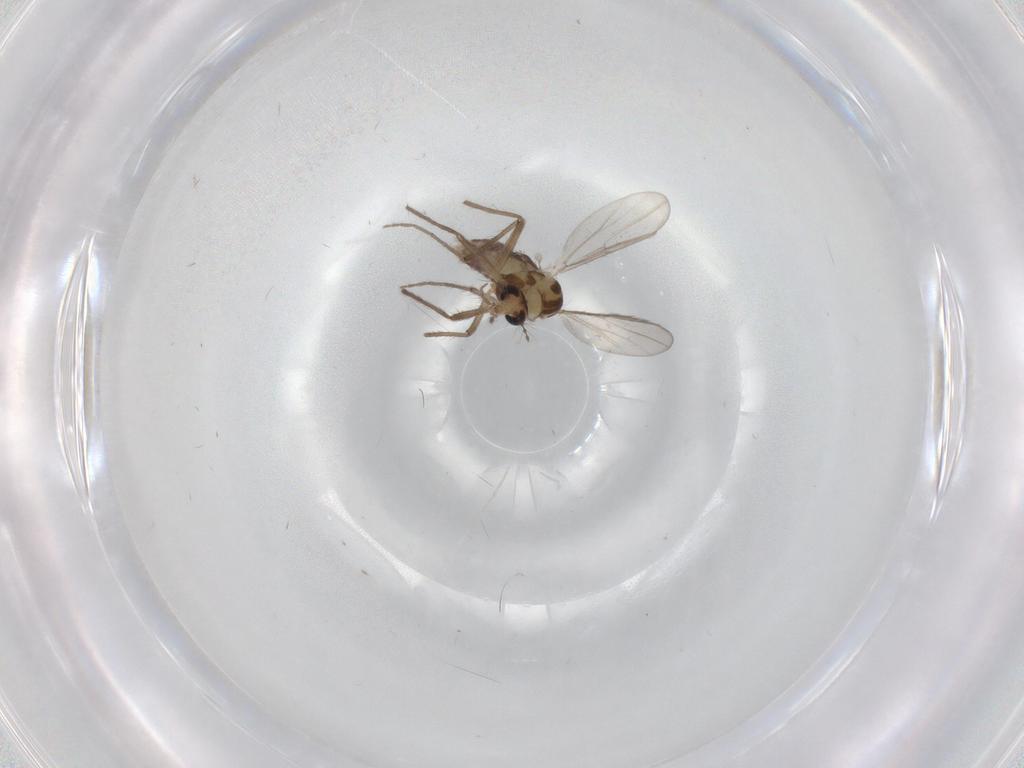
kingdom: Animalia
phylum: Arthropoda
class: Insecta
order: Diptera
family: Chironomidae
